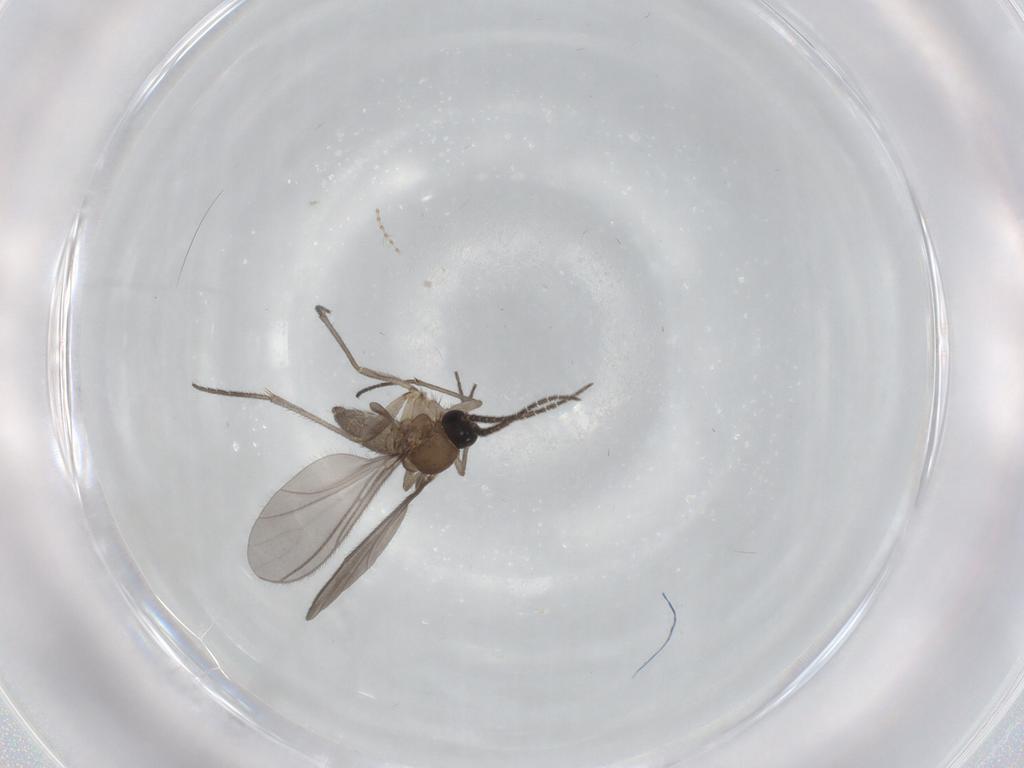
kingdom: Animalia
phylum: Arthropoda
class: Insecta
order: Diptera
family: Sciaridae
